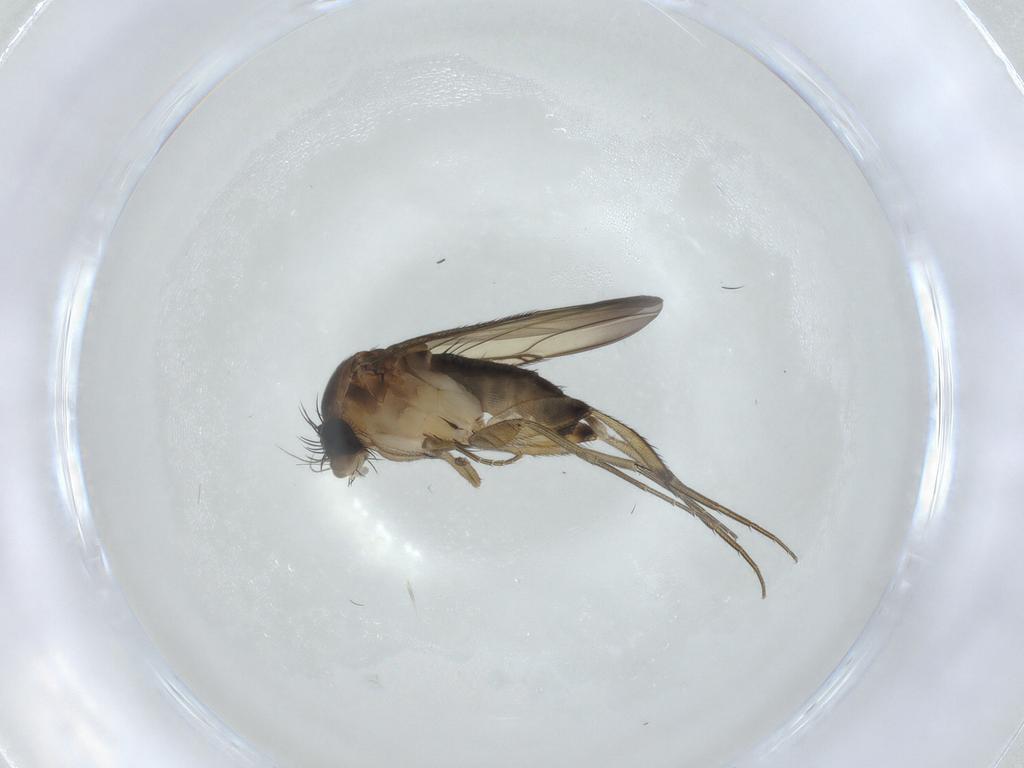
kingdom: Animalia
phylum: Arthropoda
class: Insecta
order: Diptera
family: Phoridae
